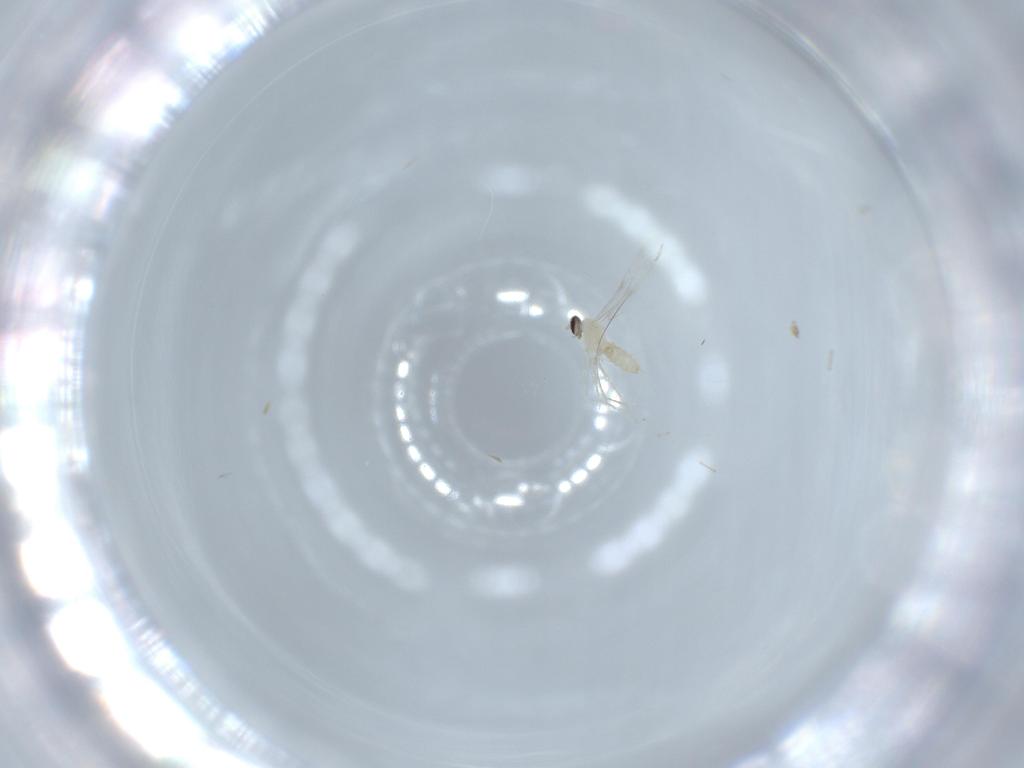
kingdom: Animalia
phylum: Arthropoda
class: Insecta
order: Diptera
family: Cecidomyiidae
